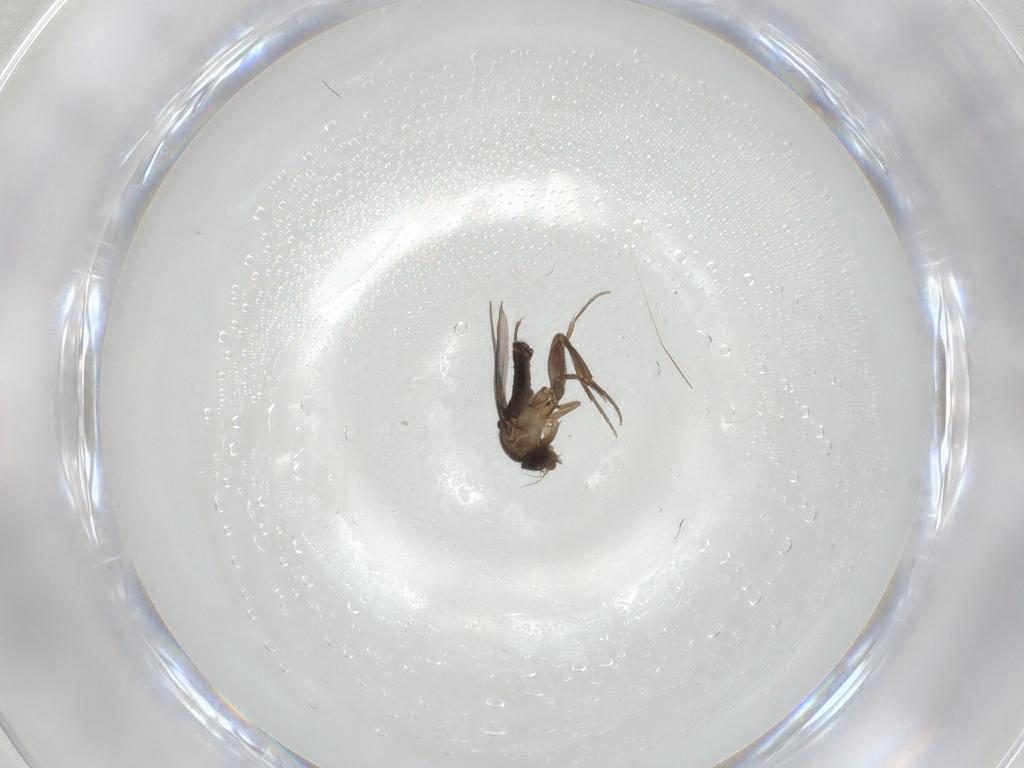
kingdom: Animalia
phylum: Arthropoda
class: Insecta
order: Diptera
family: Phoridae
